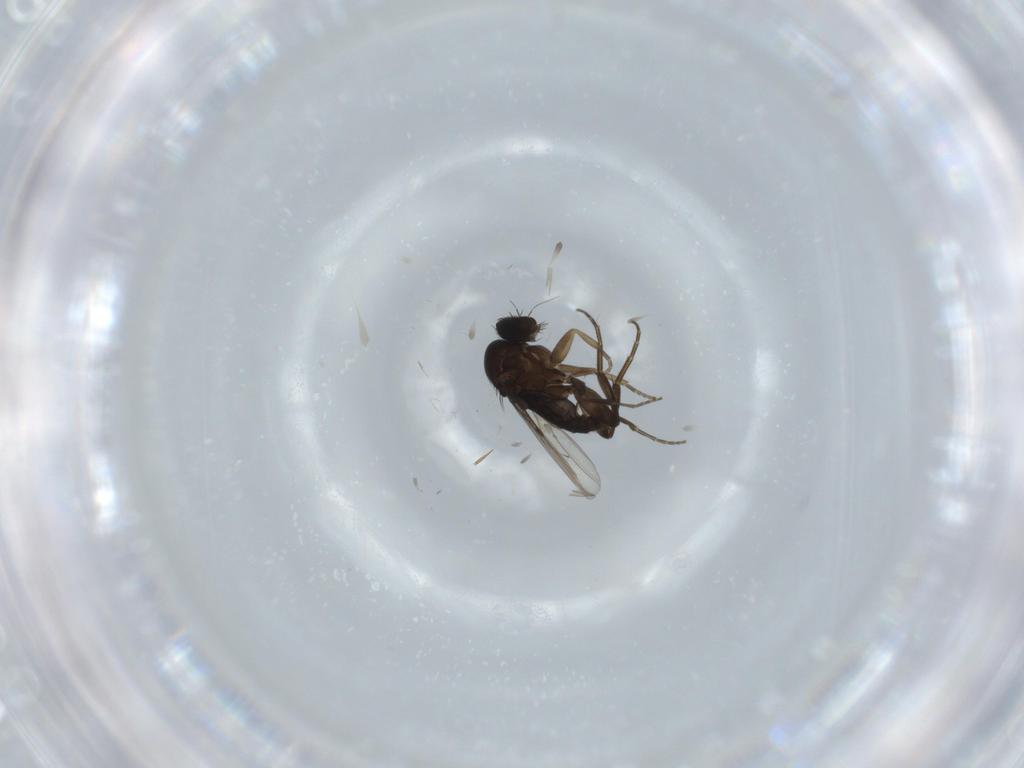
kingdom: Animalia
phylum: Arthropoda
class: Insecta
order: Diptera
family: Phoridae
